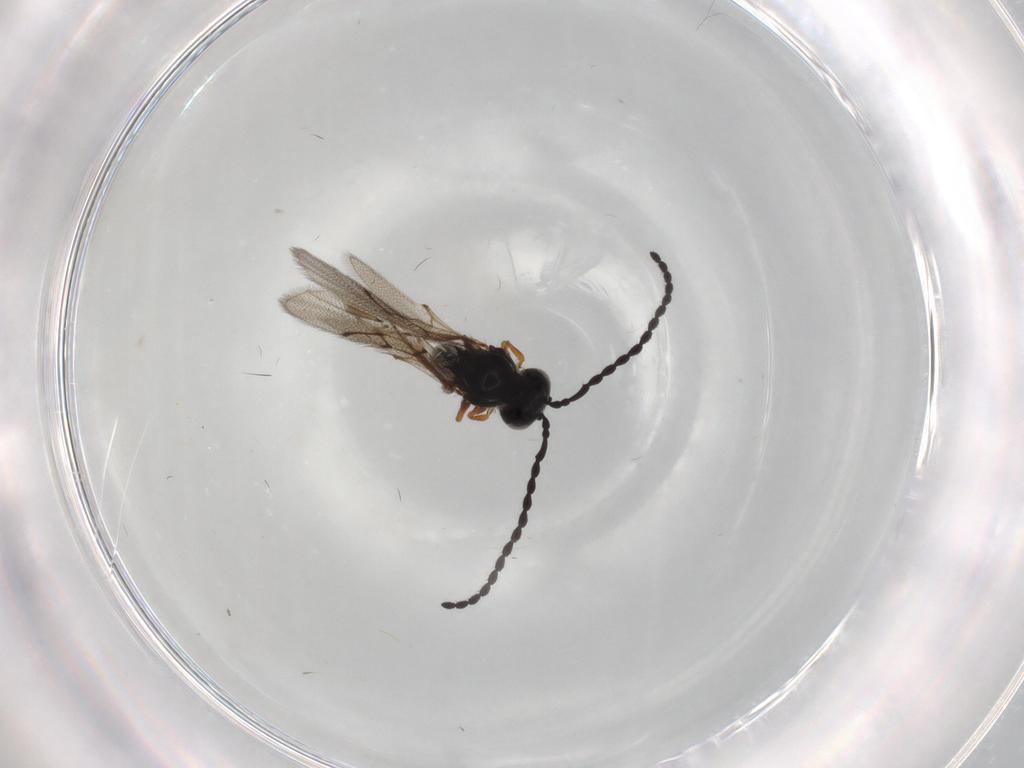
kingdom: Animalia
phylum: Arthropoda
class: Insecta
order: Hymenoptera
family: Figitidae
